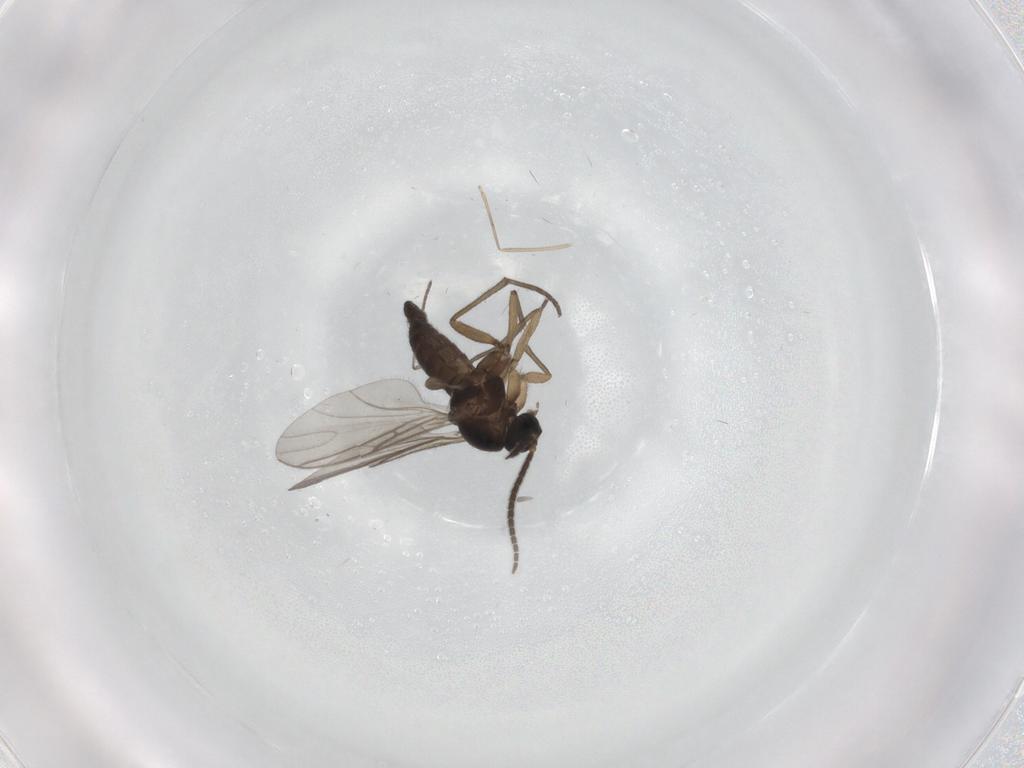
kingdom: Animalia
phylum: Arthropoda
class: Insecta
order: Diptera
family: Sciaridae
